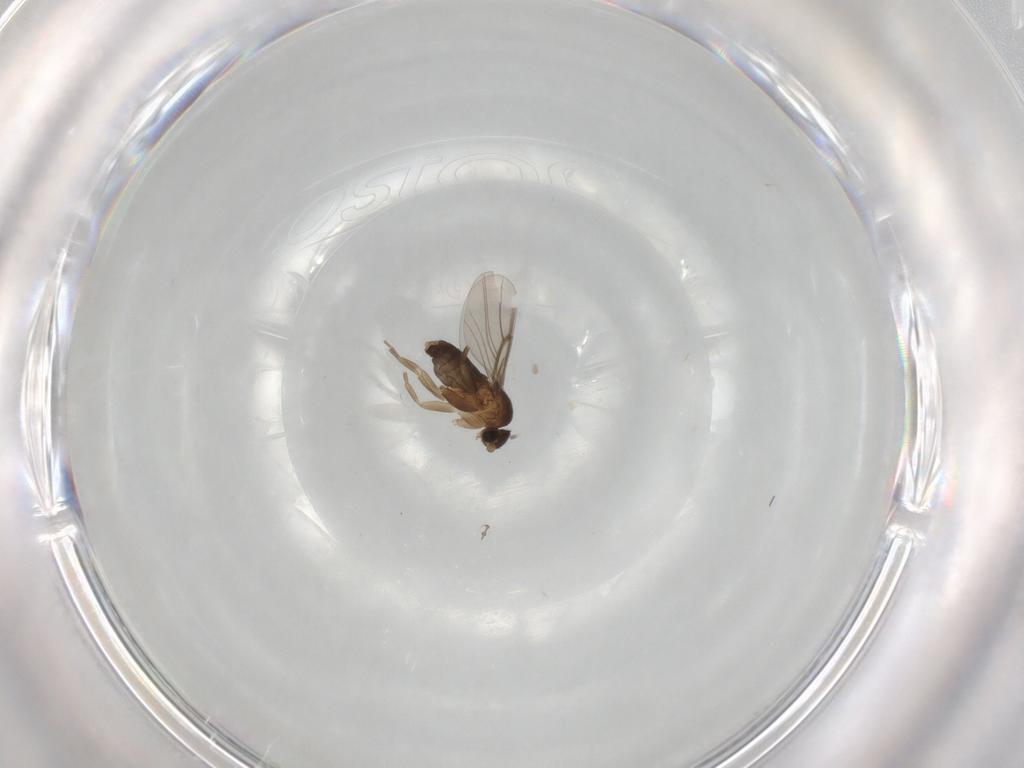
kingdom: Animalia
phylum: Arthropoda
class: Insecta
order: Diptera
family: Phoridae
